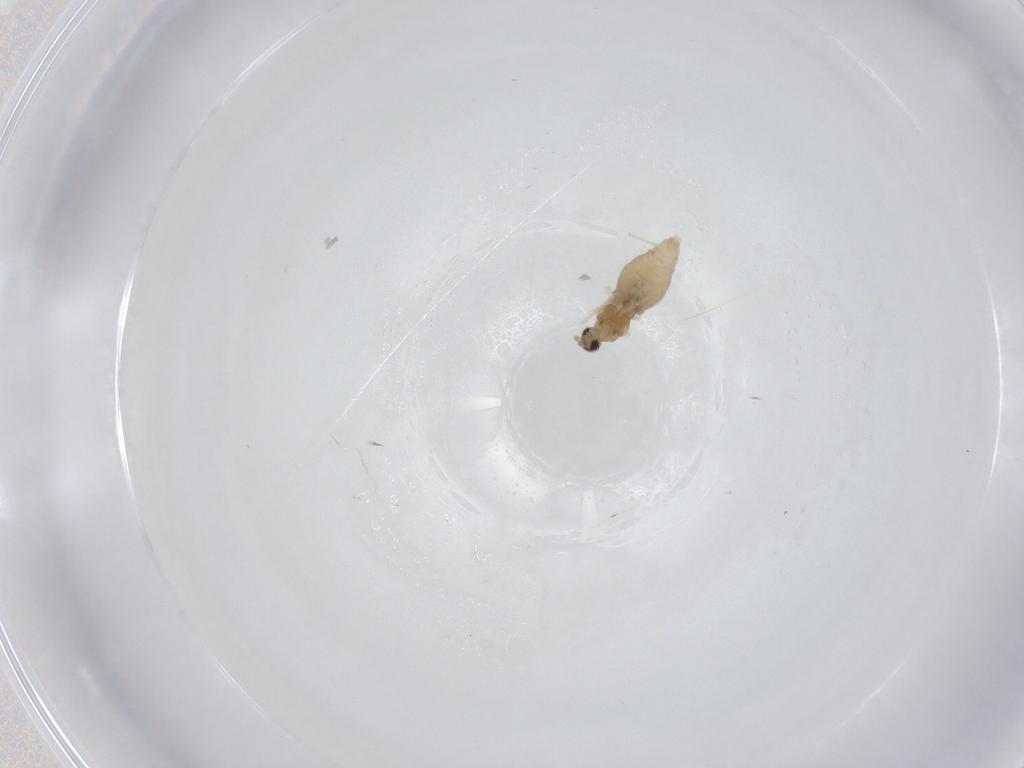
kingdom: Animalia
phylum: Arthropoda
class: Insecta
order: Diptera
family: Cecidomyiidae
